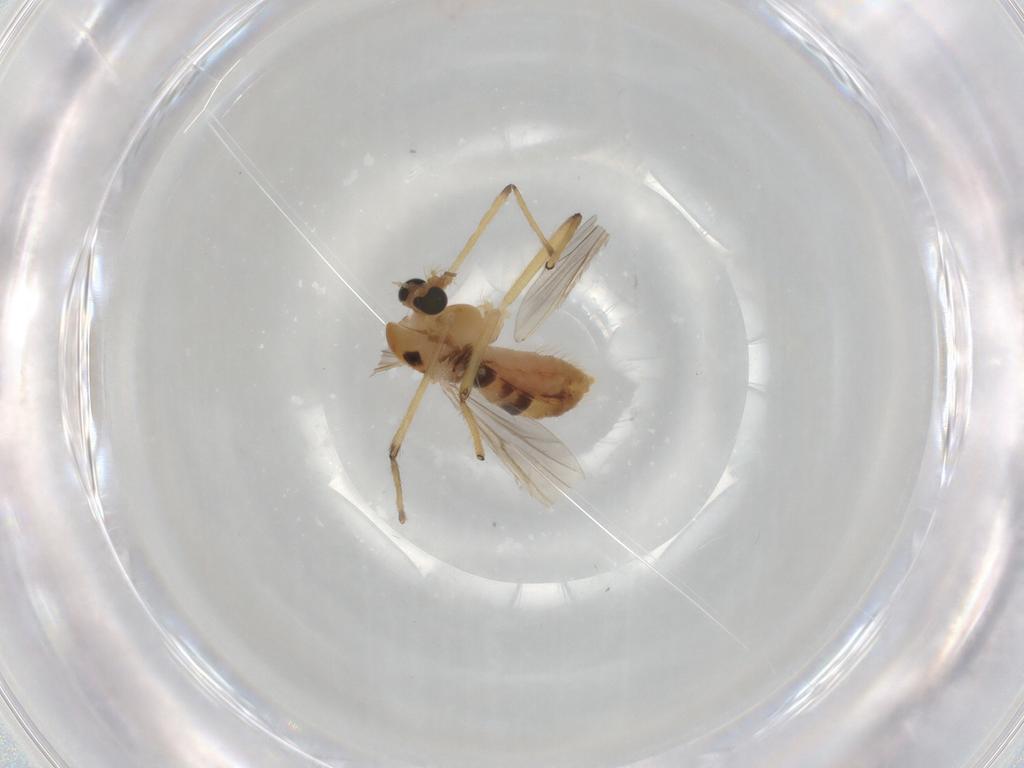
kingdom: Animalia
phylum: Arthropoda
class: Insecta
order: Diptera
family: Chironomidae
